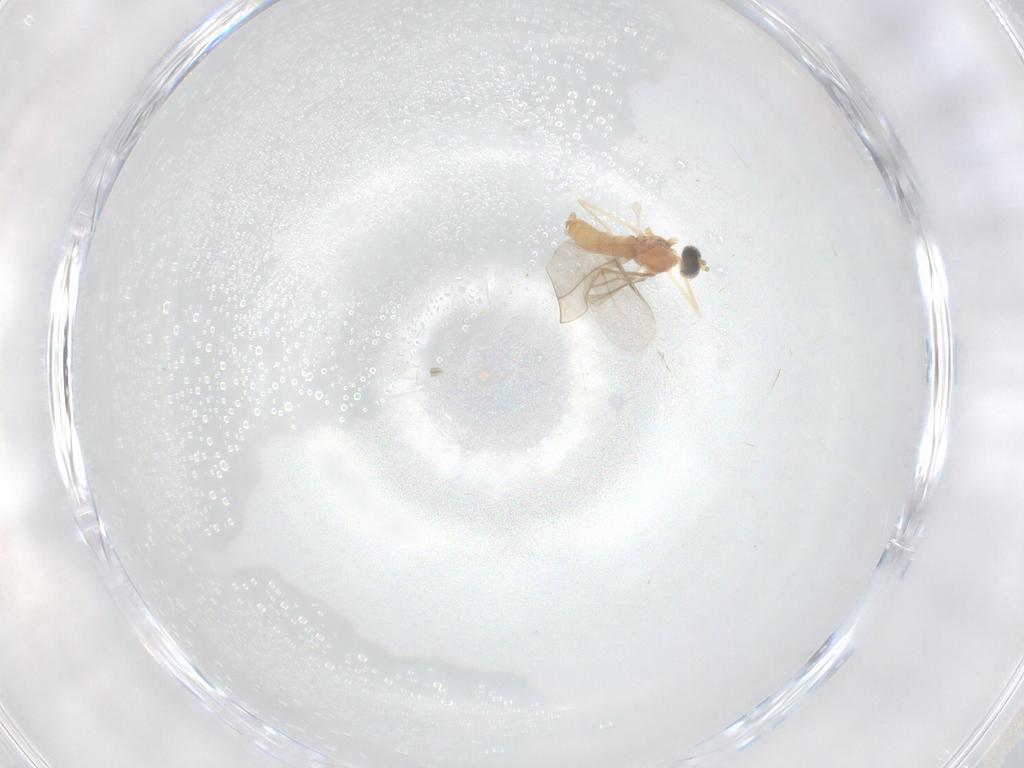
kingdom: Animalia
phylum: Arthropoda
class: Insecta
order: Diptera
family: Cecidomyiidae
